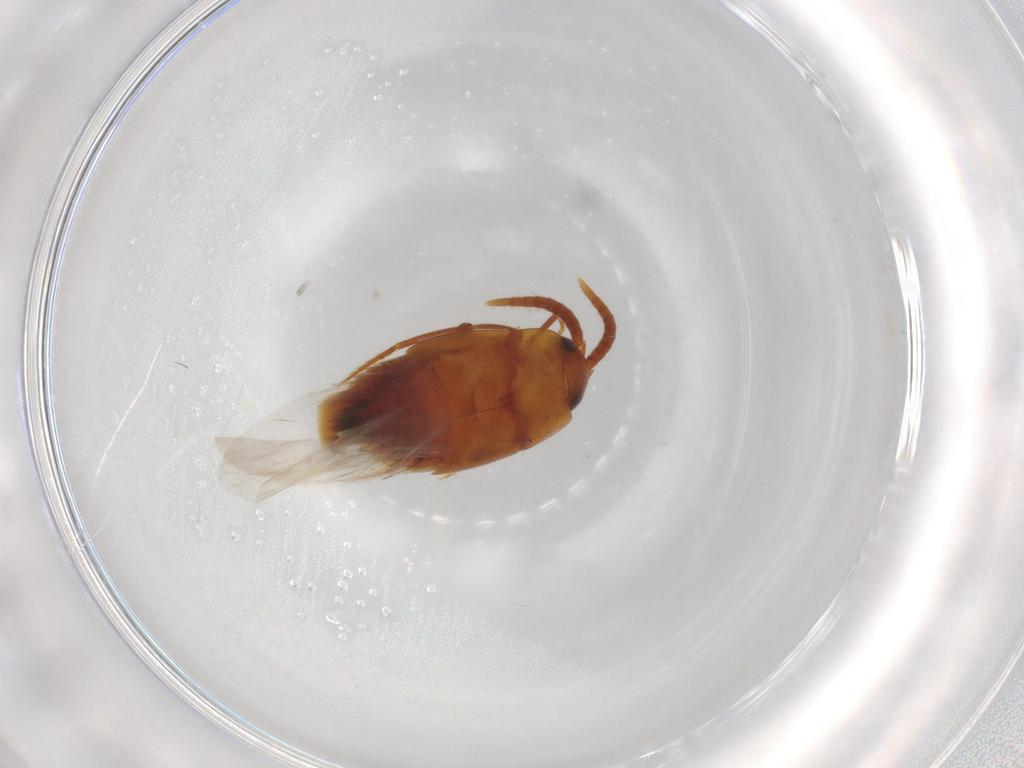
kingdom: Animalia
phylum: Arthropoda
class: Insecta
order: Coleoptera
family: Staphylinidae
